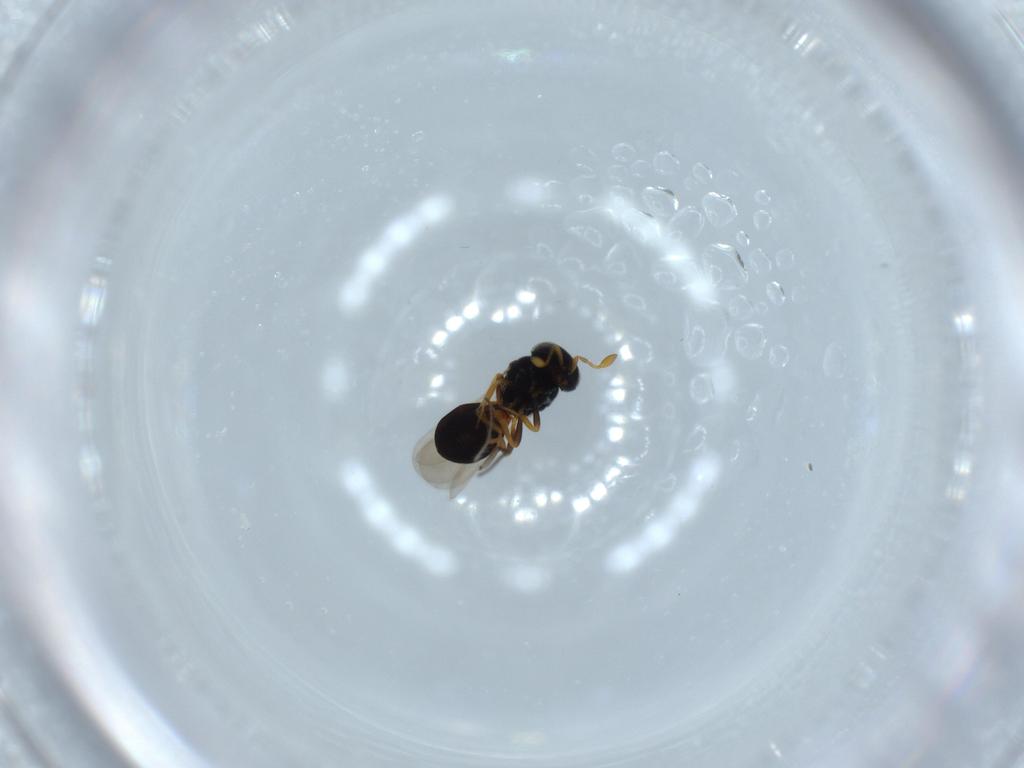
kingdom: Animalia
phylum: Arthropoda
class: Insecta
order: Hymenoptera
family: Scelionidae
